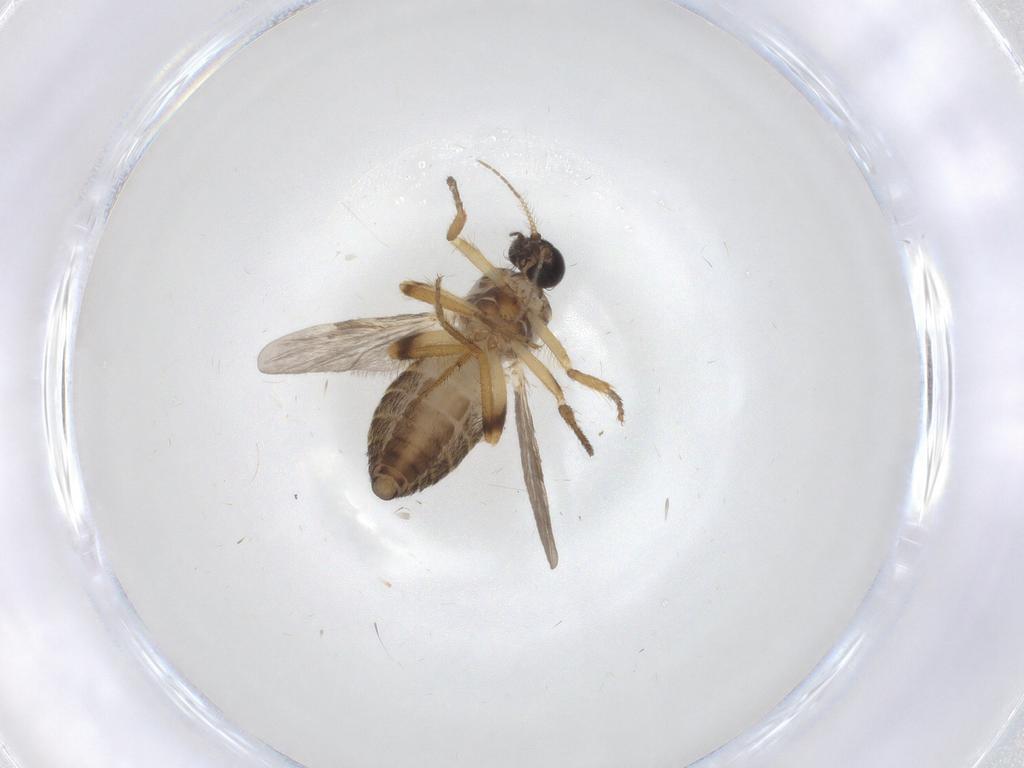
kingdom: Animalia
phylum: Arthropoda
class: Insecta
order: Diptera
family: Ceratopogonidae
